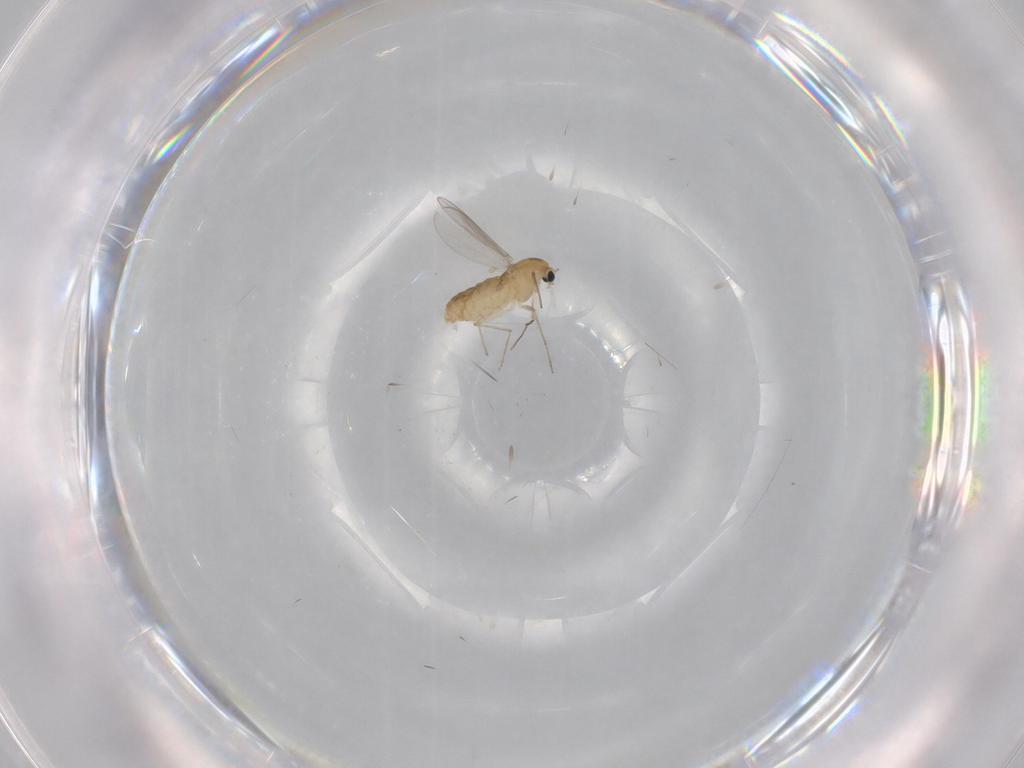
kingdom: Animalia
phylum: Arthropoda
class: Insecta
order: Diptera
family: Chironomidae
